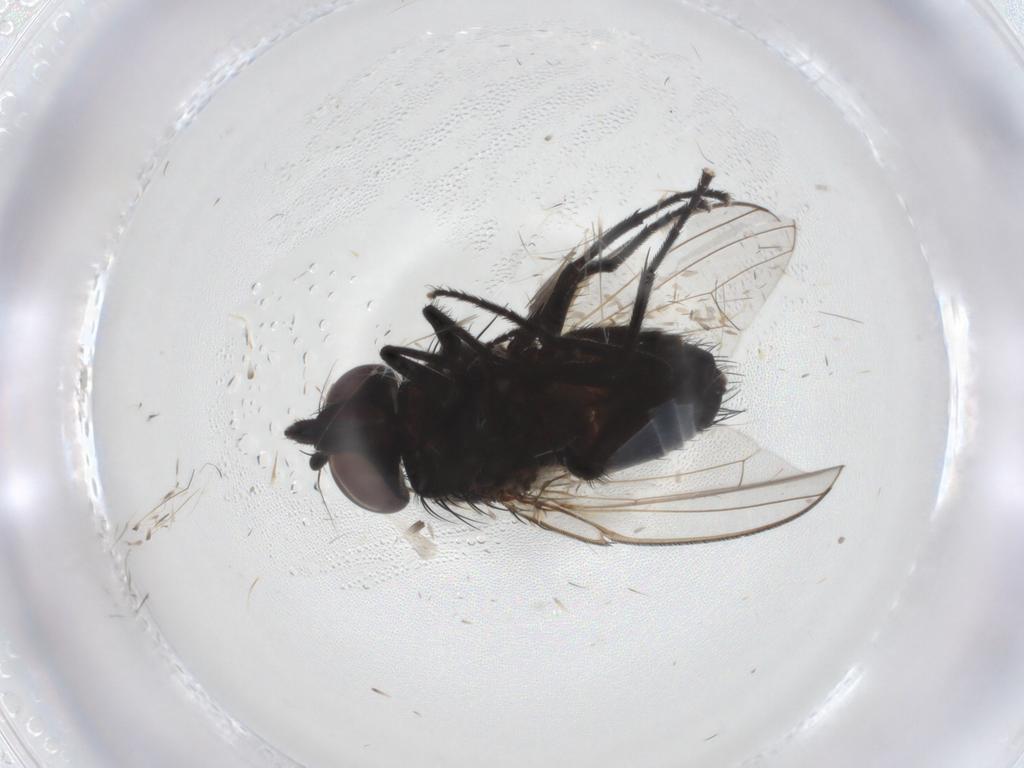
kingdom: Animalia
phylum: Arthropoda
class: Insecta
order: Diptera
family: Milichiidae
